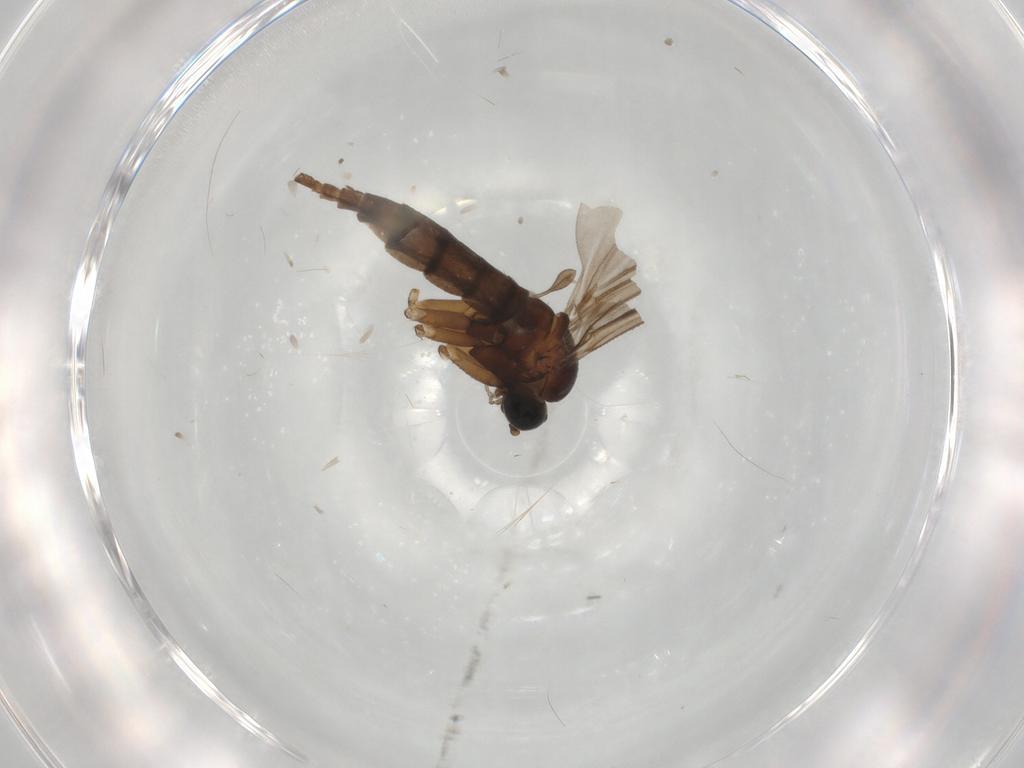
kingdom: Animalia
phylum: Arthropoda
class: Insecta
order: Diptera
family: Sciaridae
